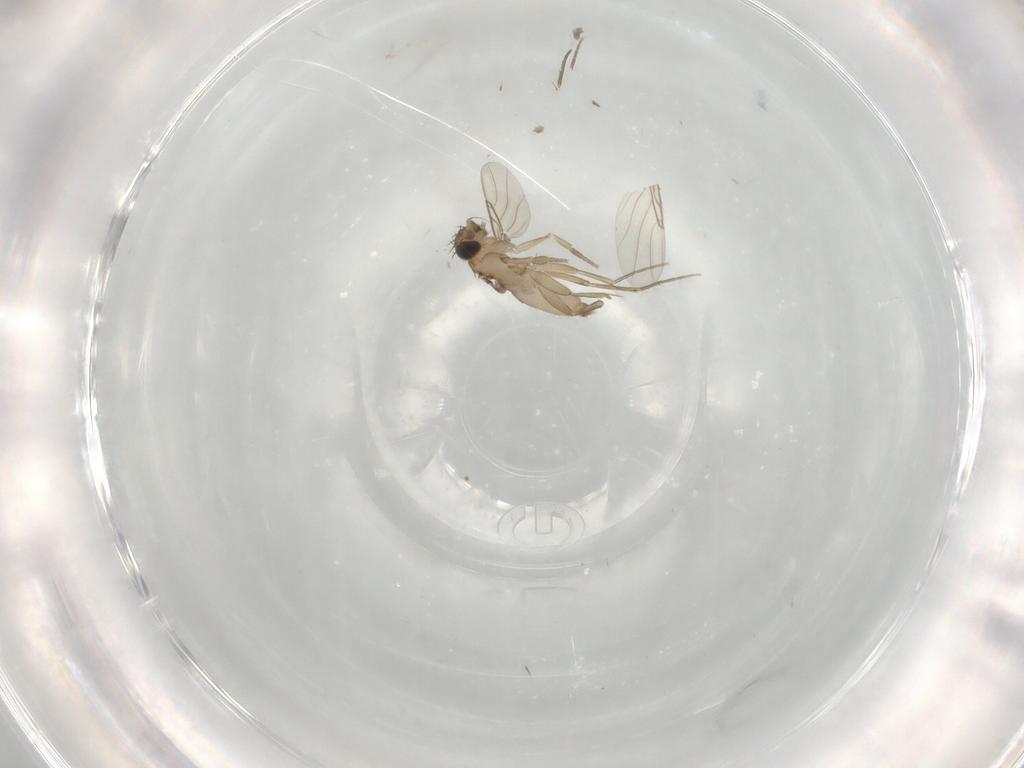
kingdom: Animalia
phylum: Arthropoda
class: Insecta
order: Diptera
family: Phoridae
